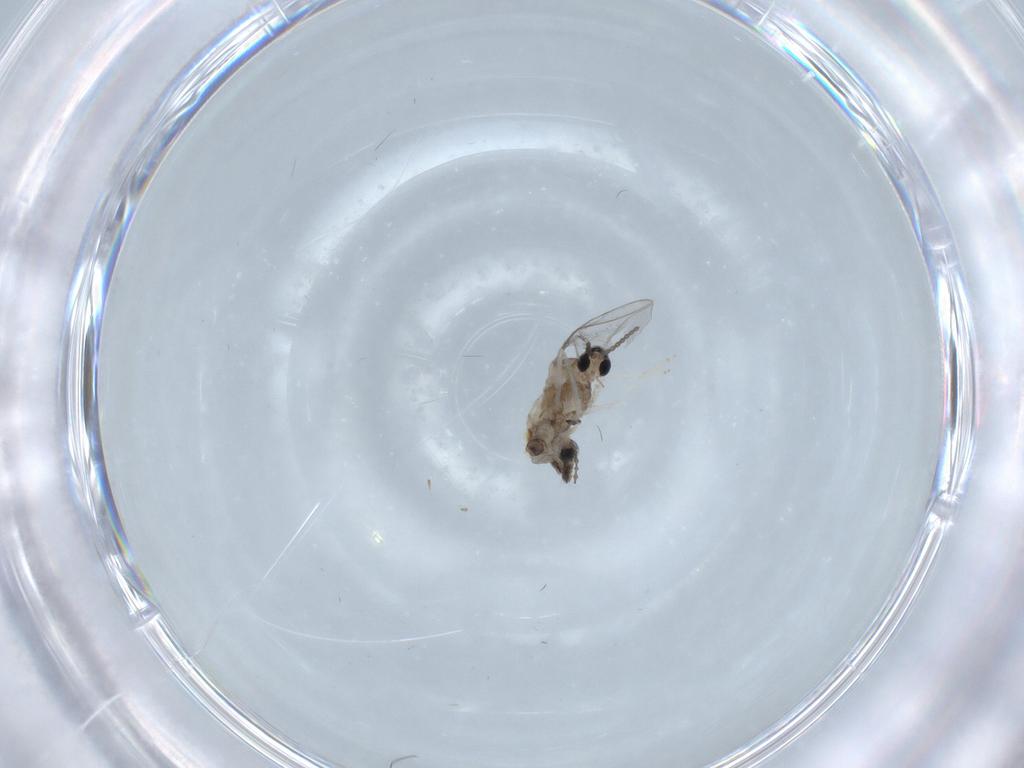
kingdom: Animalia
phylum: Arthropoda
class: Insecta
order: Diptera
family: Cecidomyiidae
